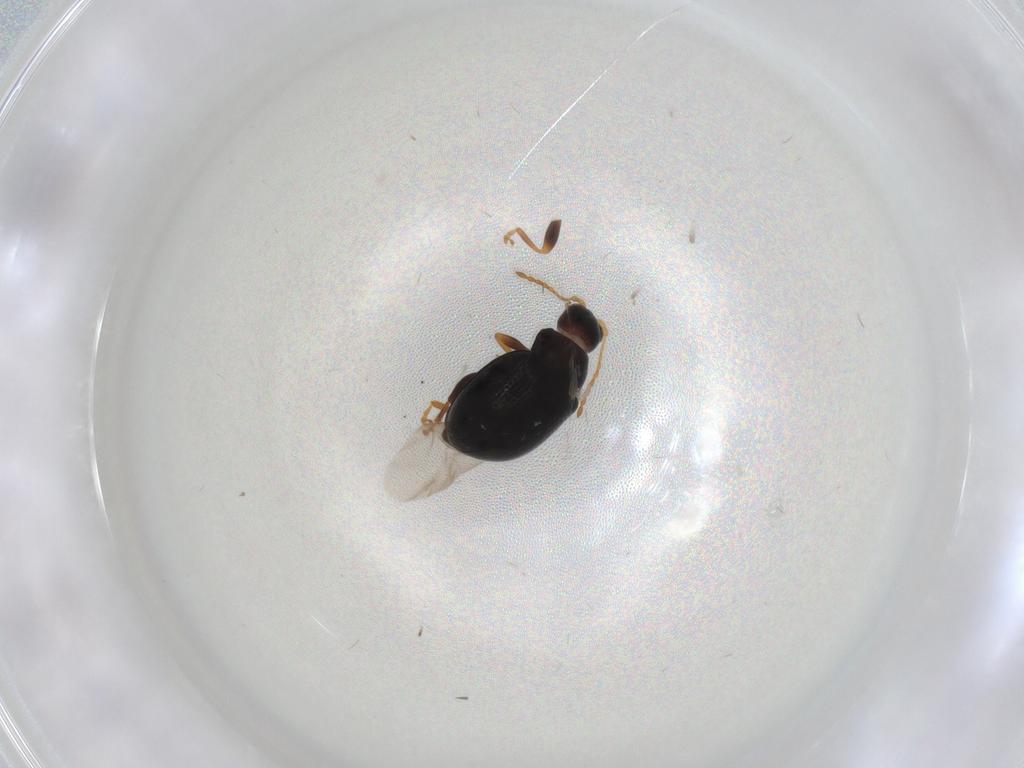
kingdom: Animalia
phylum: Arthropoda
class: Insecta
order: Coleoptera
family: Chrysomelidae
